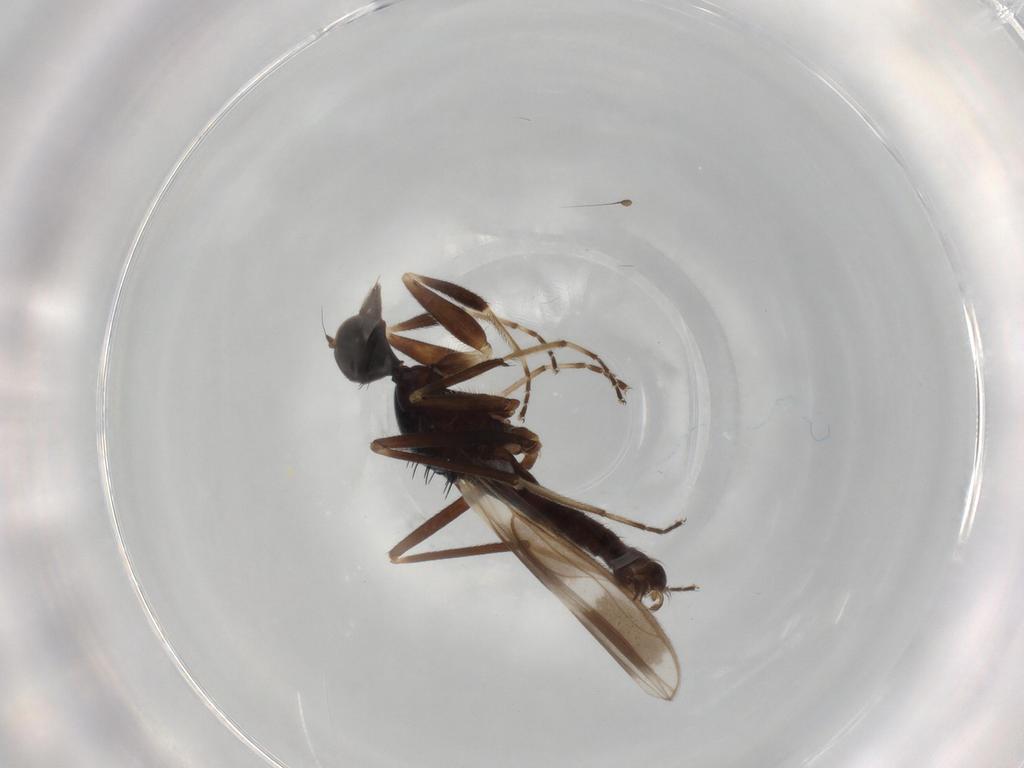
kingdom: Animalia
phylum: Arthropoda
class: Insecta
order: Diptera
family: Hybotidae
